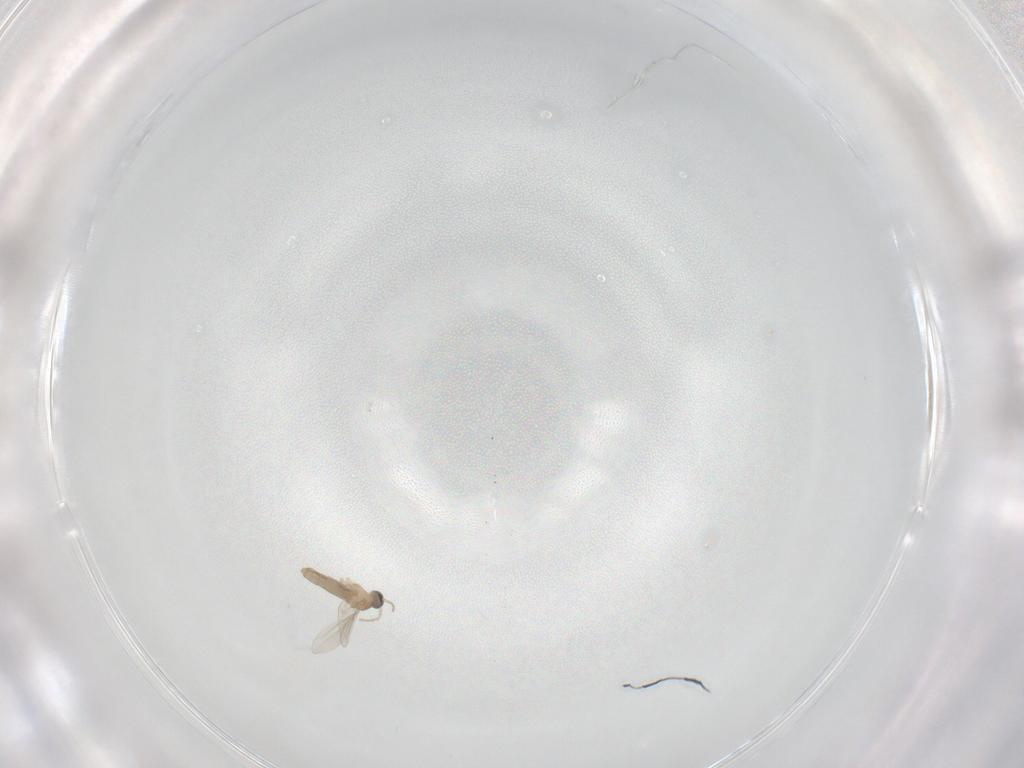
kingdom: Animalia
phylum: Arthropoda
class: Insecta
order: Diptera
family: Cecidomyiidae
